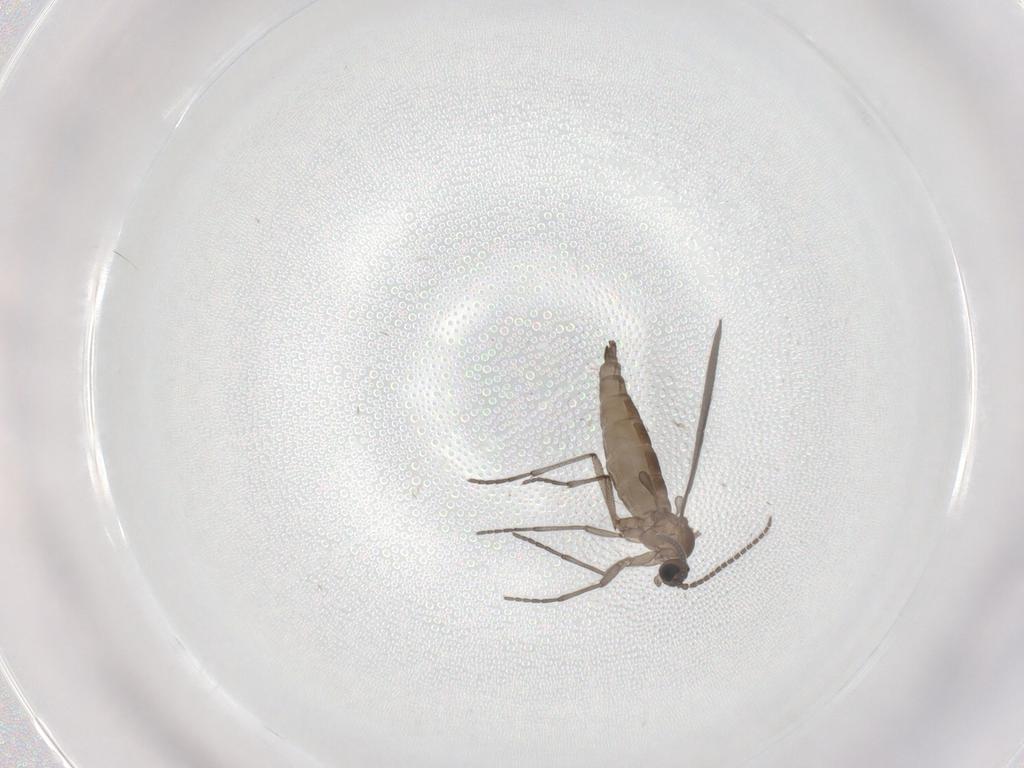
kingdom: Animalia
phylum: Arthropoda
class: Insecta
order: Diptera
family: Sciaridae
